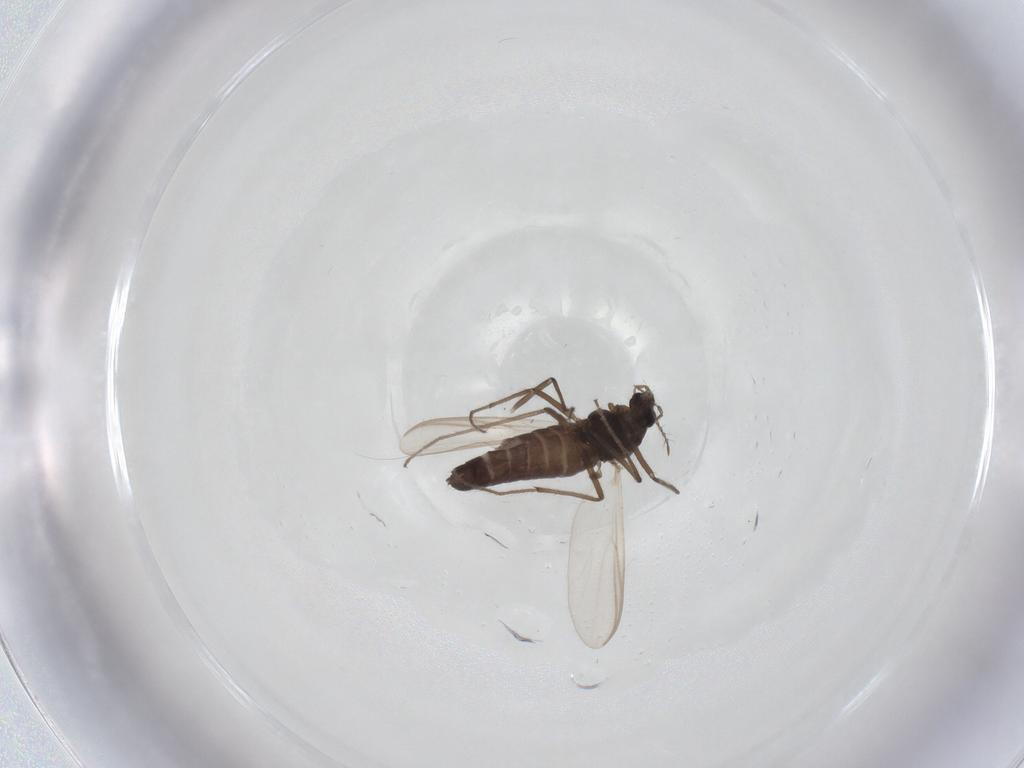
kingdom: Animalia
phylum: Arthropoda
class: Insecta
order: Diptera
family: Chironomidae
